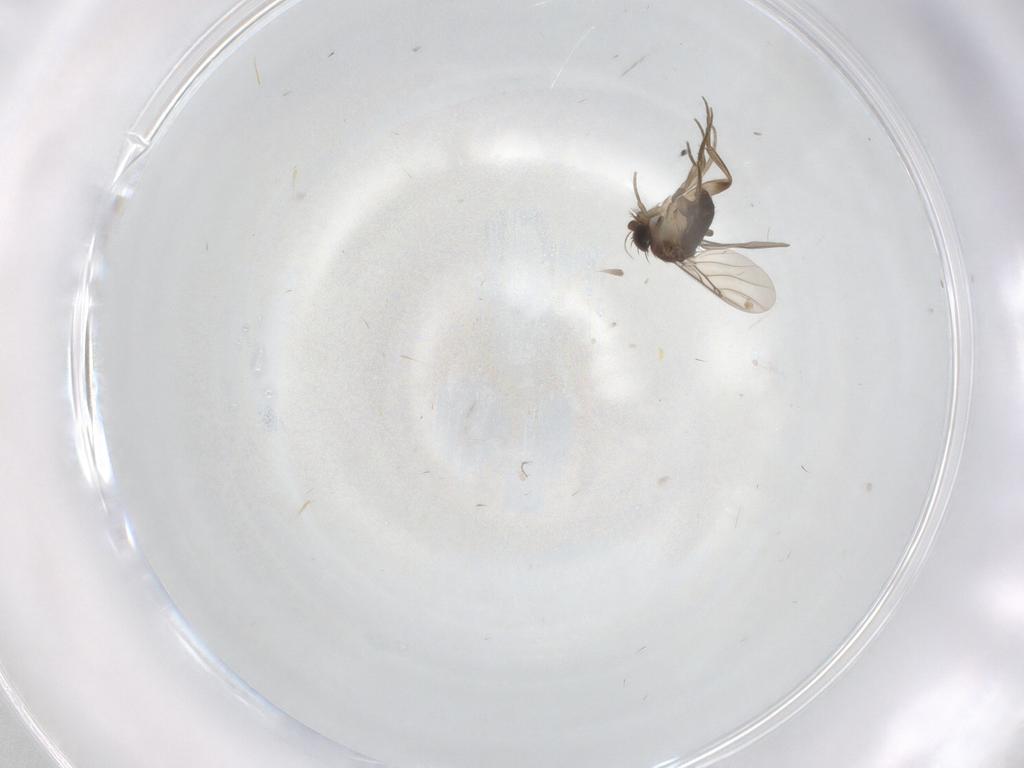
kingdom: Animalia
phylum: Arthropoda
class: Insecta
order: Diptera
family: Phoridae
